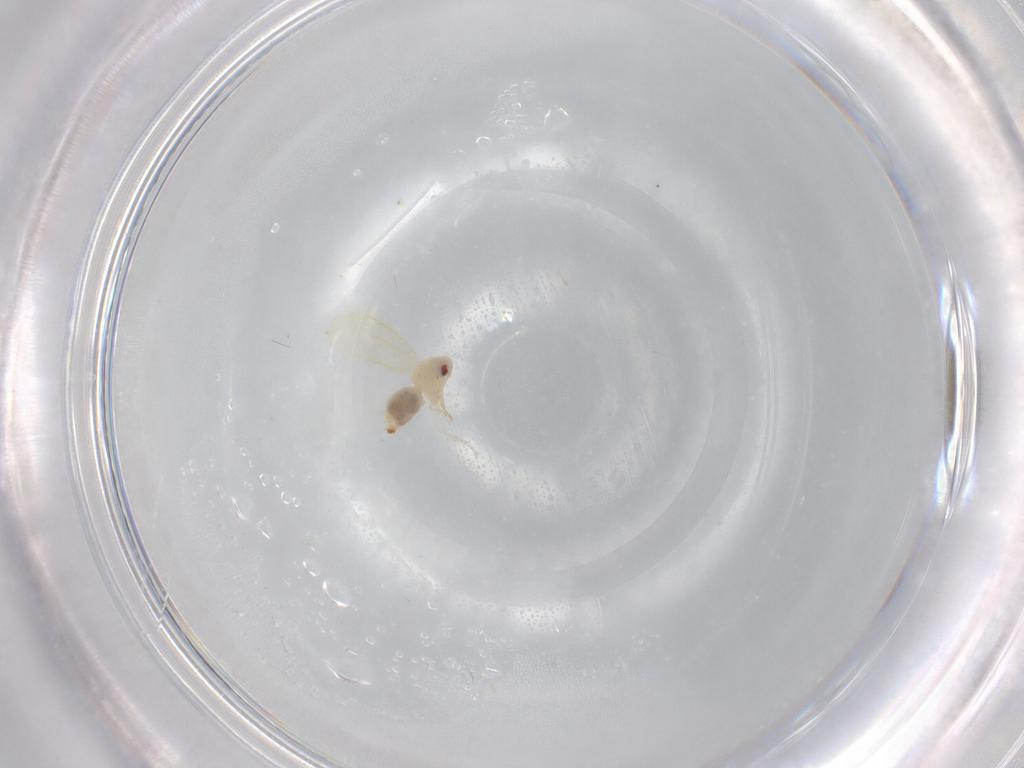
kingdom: Animalia
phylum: Arthropoda
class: Insecta
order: Hemiptera
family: Aleyrodidae
